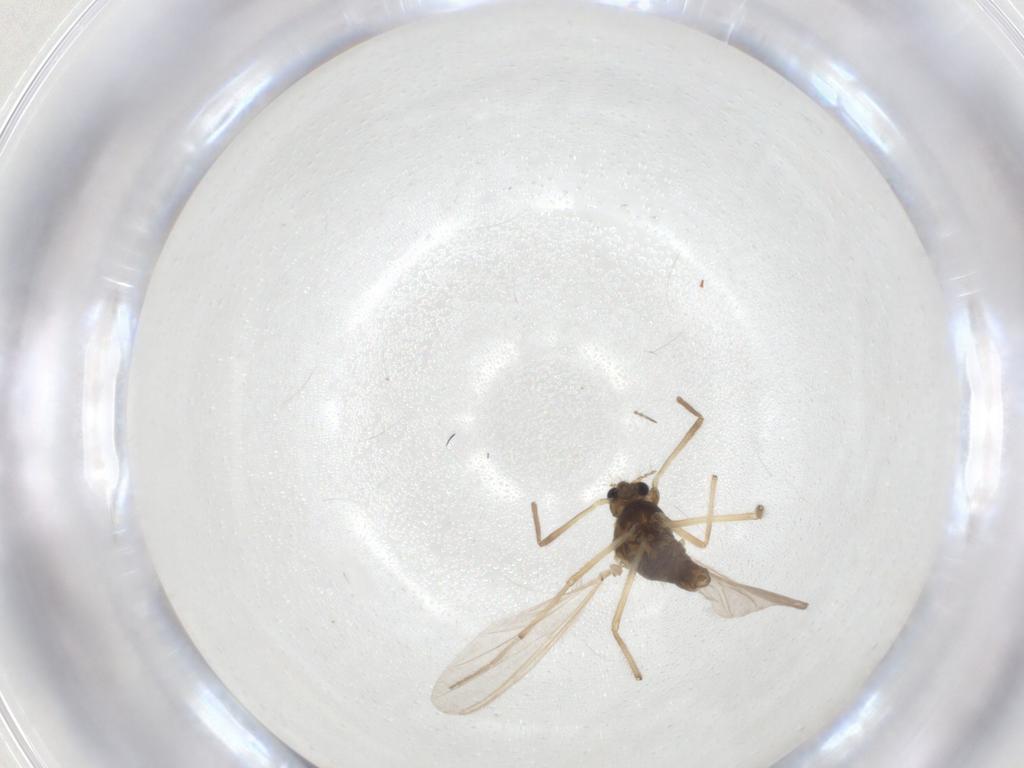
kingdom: Animalia
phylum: Arthropoda
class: Insecta
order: Diptera
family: Chironomidae
